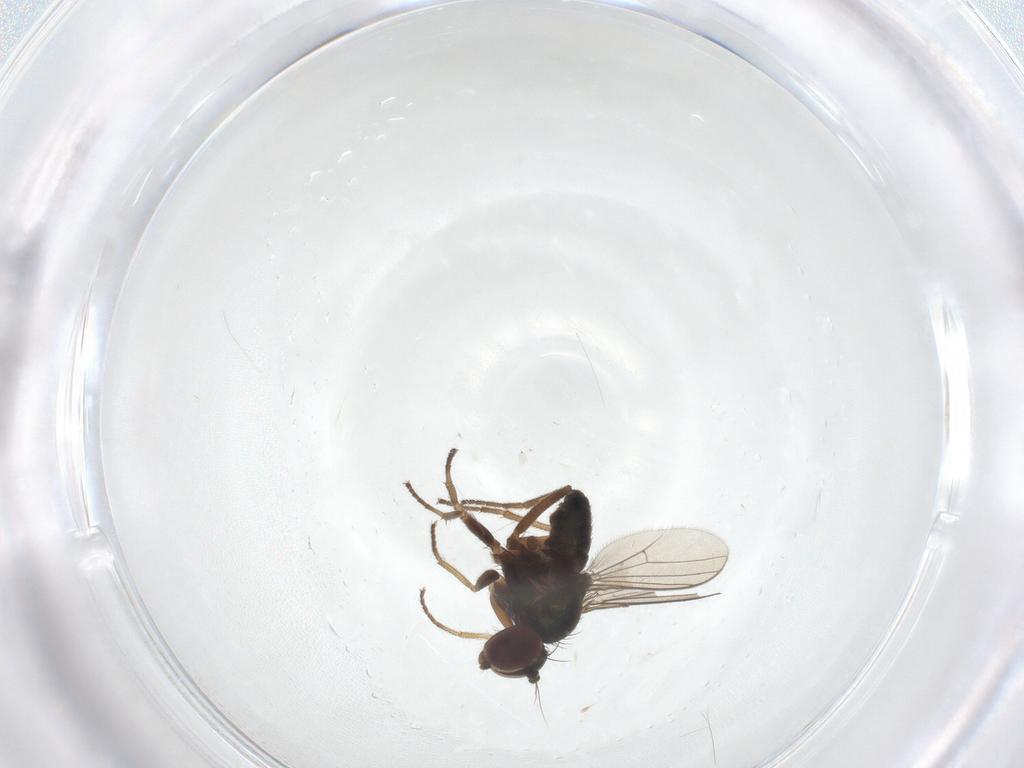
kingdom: Animalia
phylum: Arthropoda
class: Insecta
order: Diptera
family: Dolichopodidae
